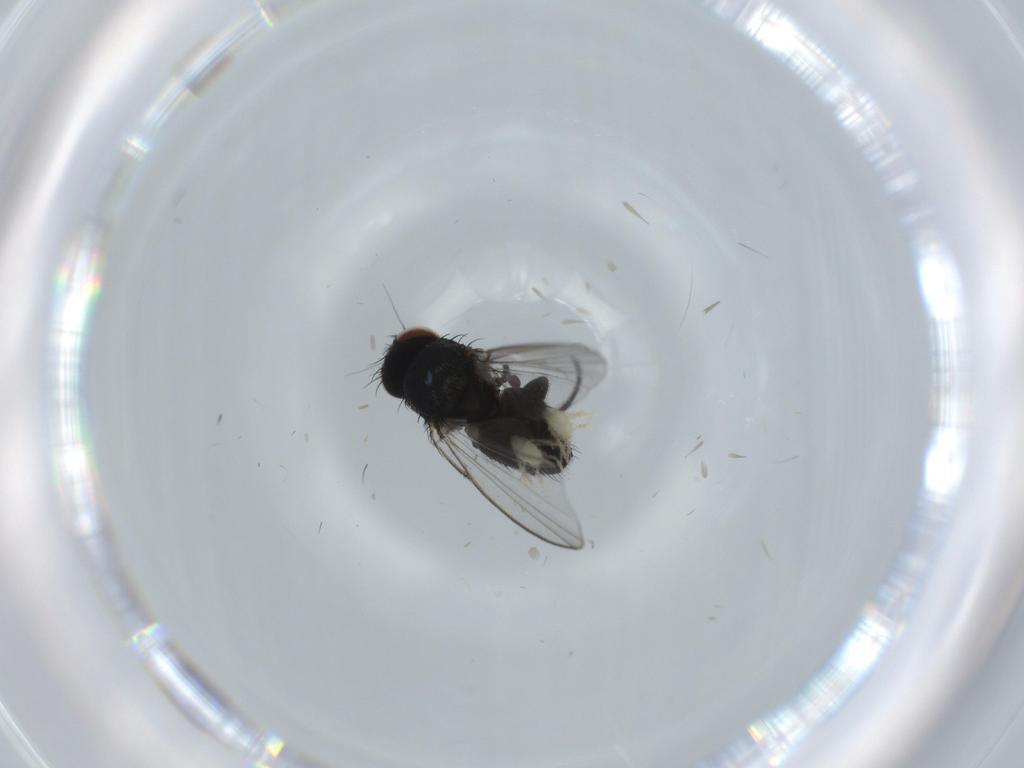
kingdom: Animalia
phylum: Arthropoda
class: Insecta
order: Diptera
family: Milichiidae
